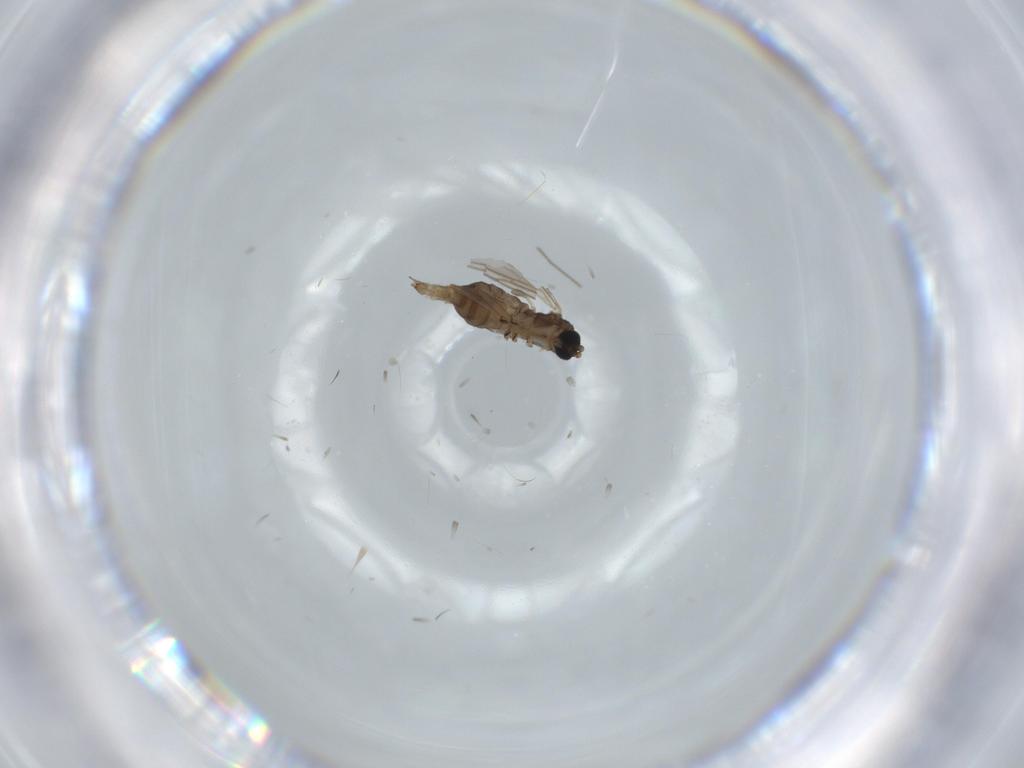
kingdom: Animalia
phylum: Arthropoda
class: Insecta
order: Diptera
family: Sciaridae
